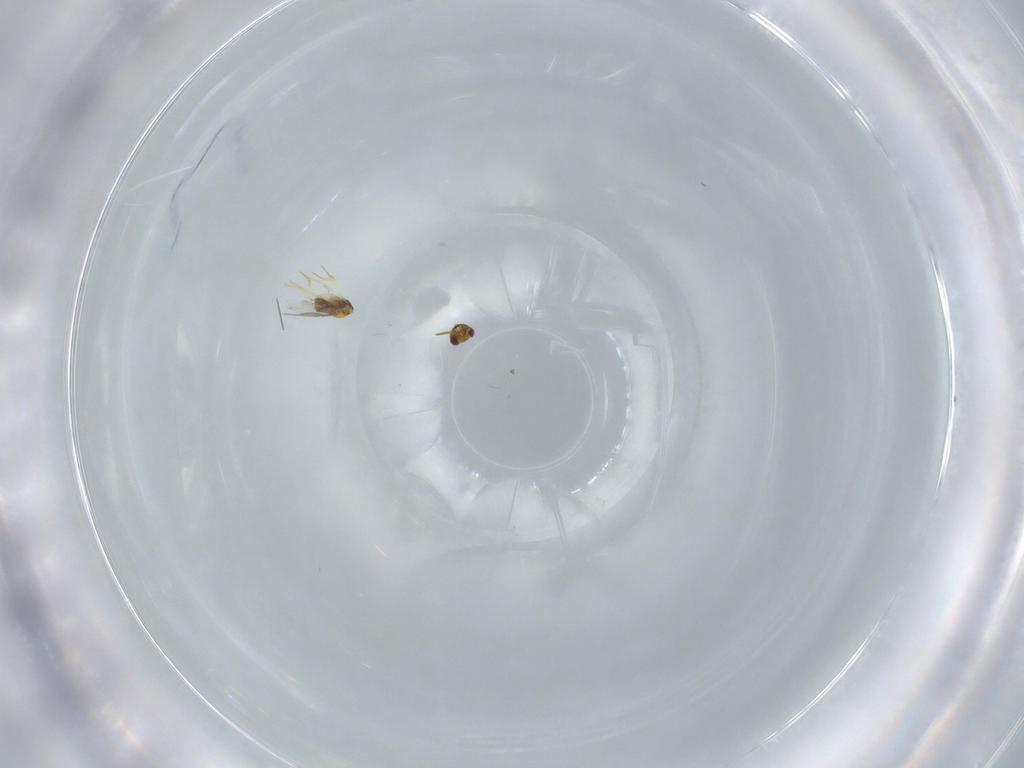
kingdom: Animalia
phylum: Arthropoda
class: Insecta
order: Hymenoptera
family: Aphelinidae
